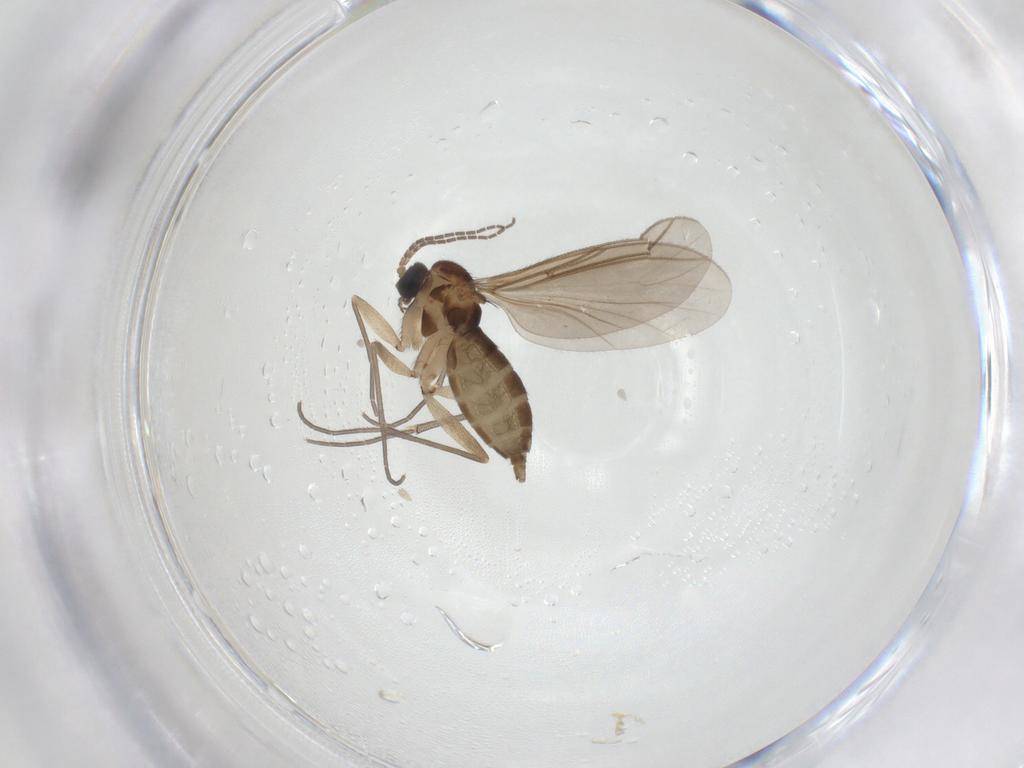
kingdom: Animalia
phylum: Arthropoda
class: Insecta
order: Diptera
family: Sciaridae
